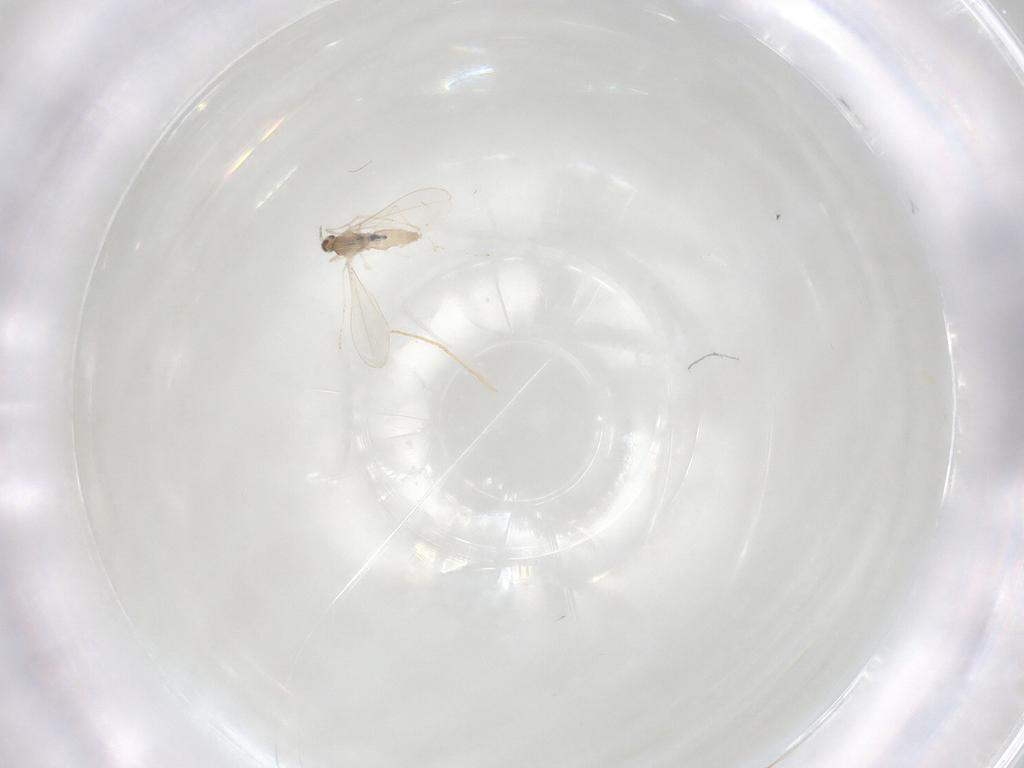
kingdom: Animalia
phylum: Arthropoda
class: Insecta
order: Diptera
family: Cecidomyiidae
